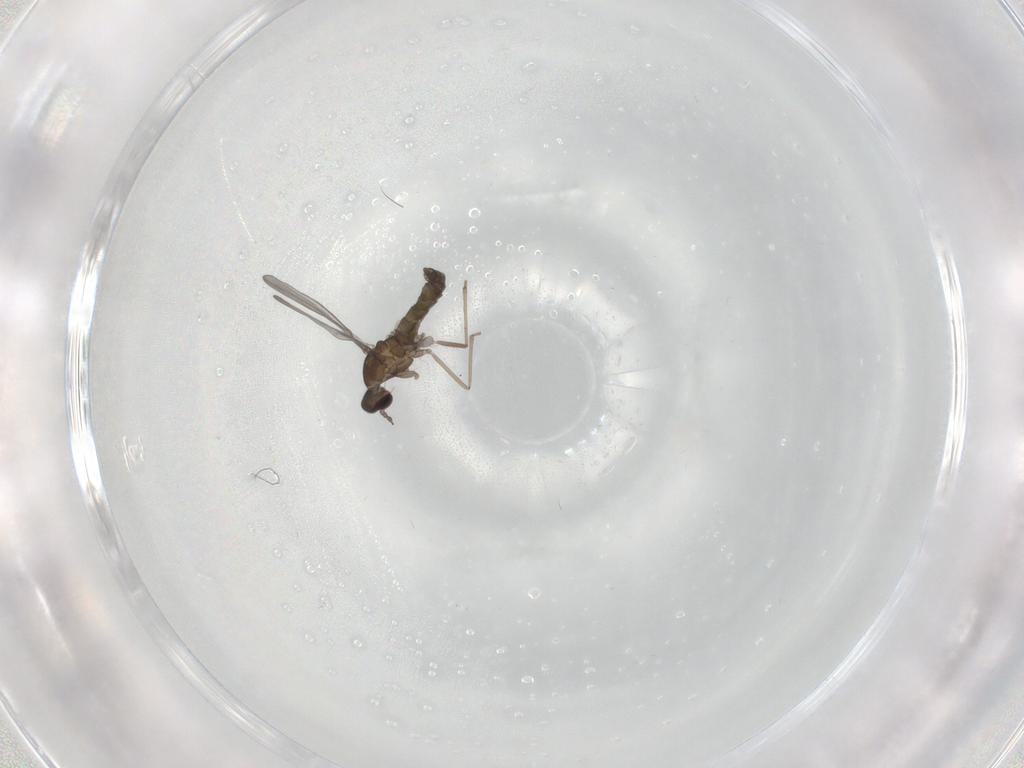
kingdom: Animalia
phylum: Arthropoda
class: Insecta
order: Diptera
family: Cecidomyiidae
